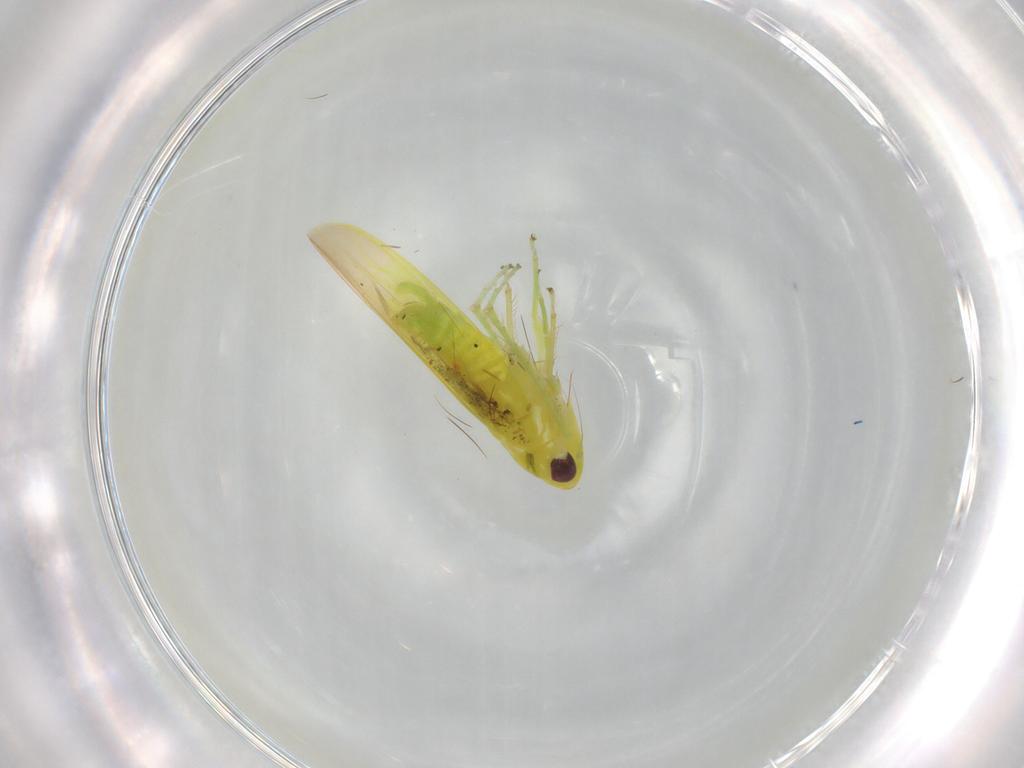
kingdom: Animalia
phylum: Arthropoda
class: Insecta
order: Hemiptera
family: Cicadellidae
